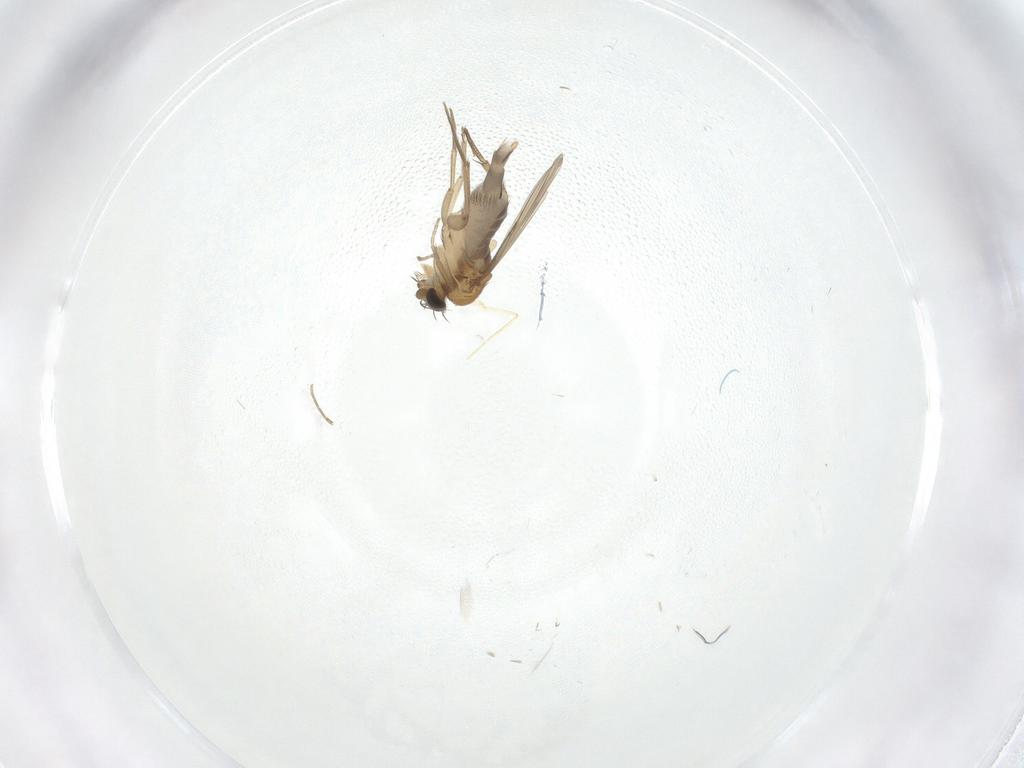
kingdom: Animalia
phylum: Arthropoda
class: Insecta
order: Diptera
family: Phoridae
